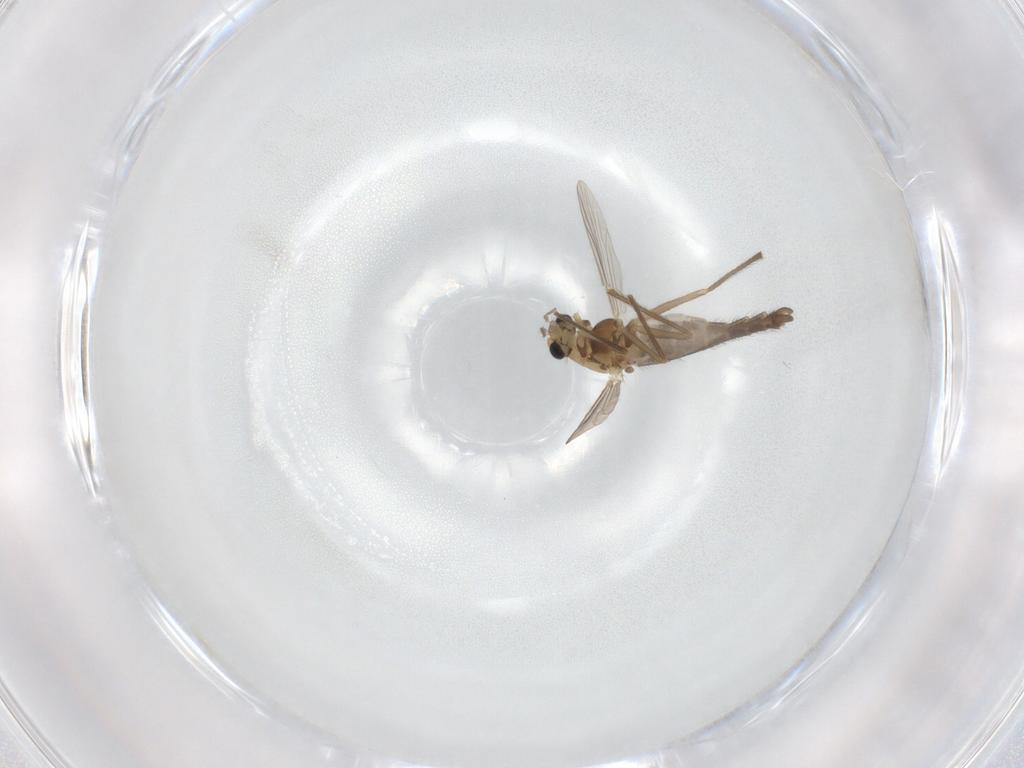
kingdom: Animalia
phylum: Arthropoda
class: Insecta
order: Diptera
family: Chironomidae
